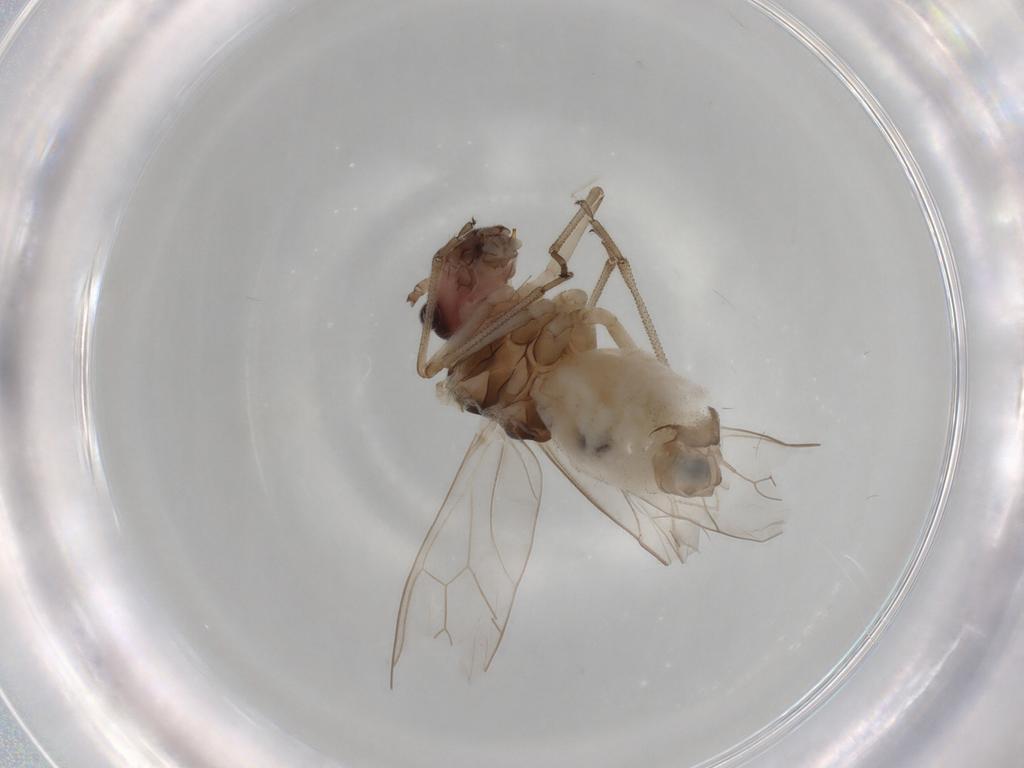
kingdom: Animalia
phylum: Arthropoda
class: Insecta
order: Psocodea
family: Stenopsocidae
